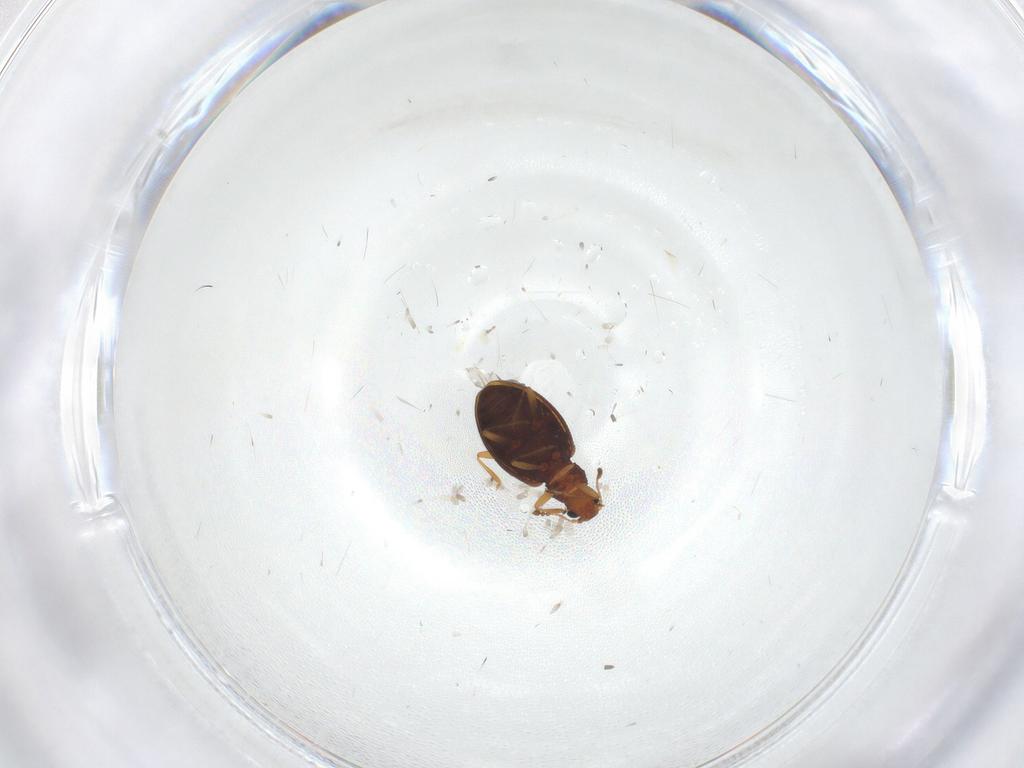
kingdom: Animalia
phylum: Arthropoda
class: Insecta
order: Coleoptera
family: Latridiidae
